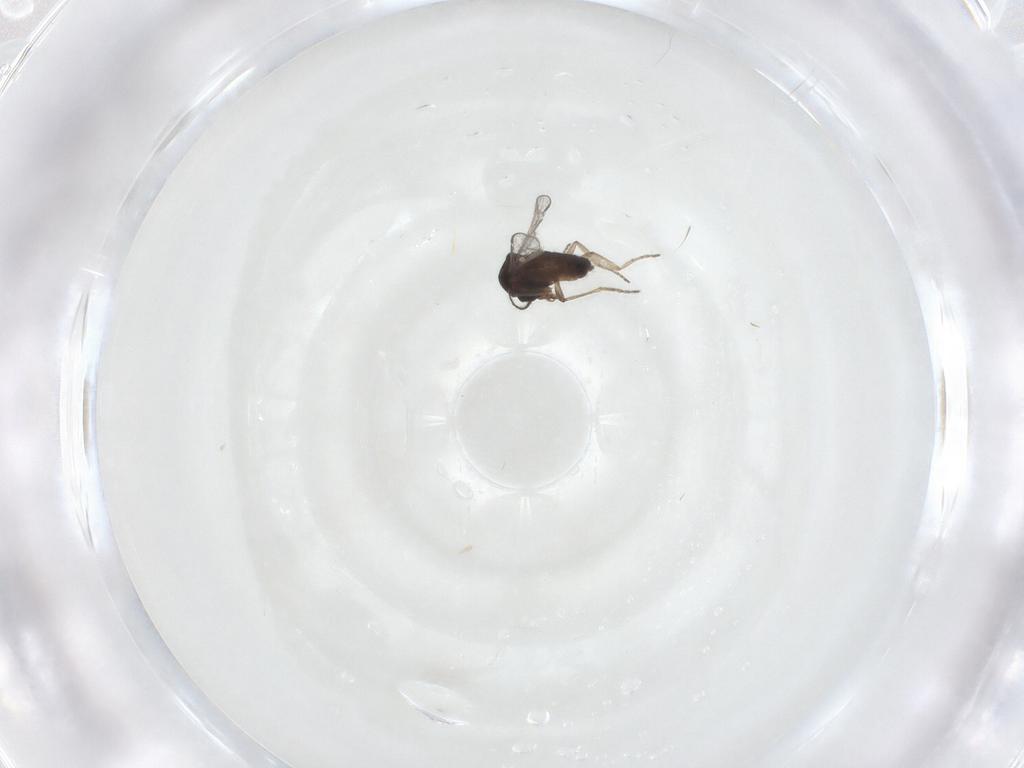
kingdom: Animalia
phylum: Arthropoda
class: Insecta
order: Diptera
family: Ceratopogonidae
